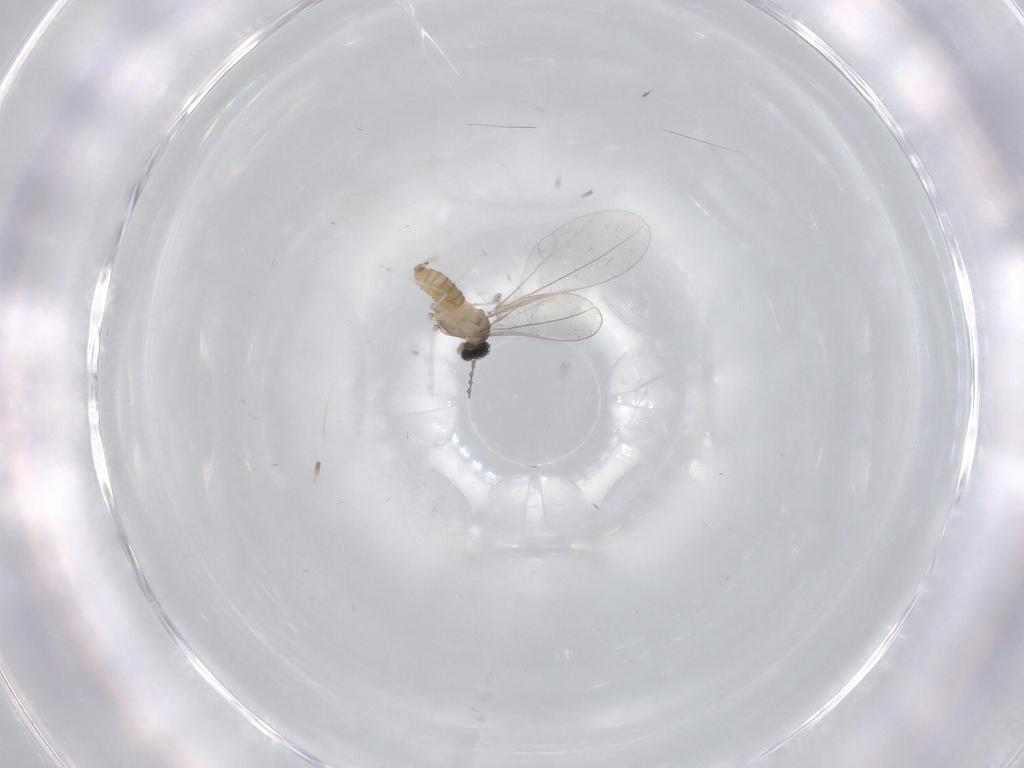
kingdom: Animalia
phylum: Arthropoda
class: Insecta
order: Diptera
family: Cecidomyiidae
